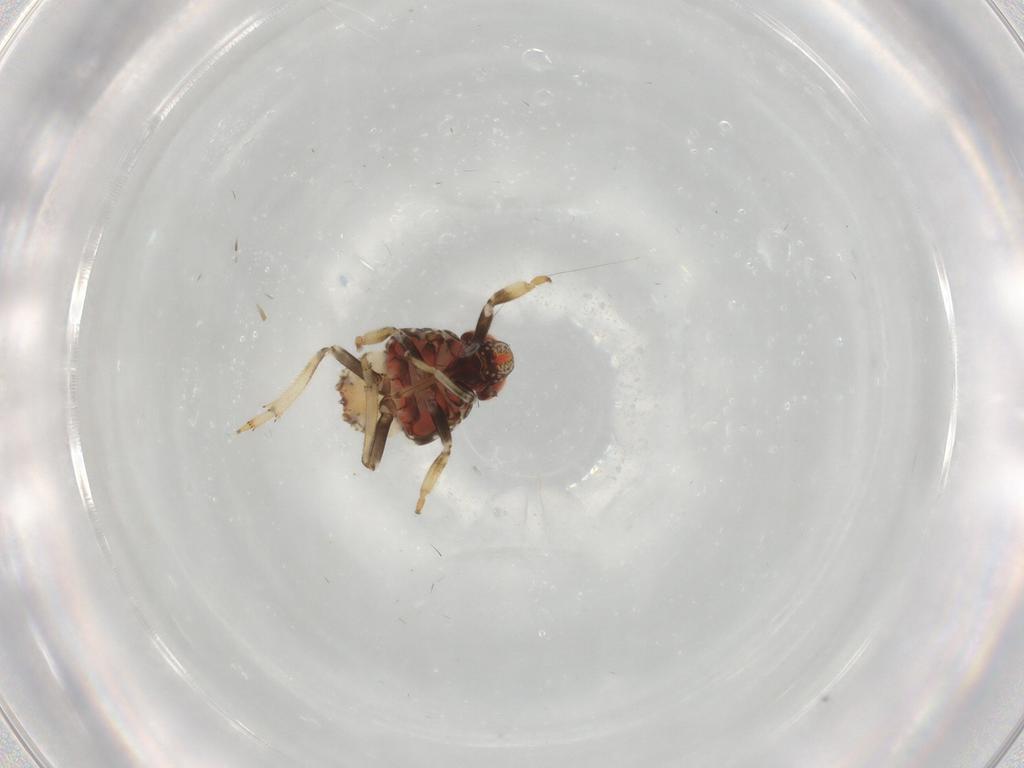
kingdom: Animalia
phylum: Arthropoda
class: Insecta
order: Hemiptera
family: Issidae
